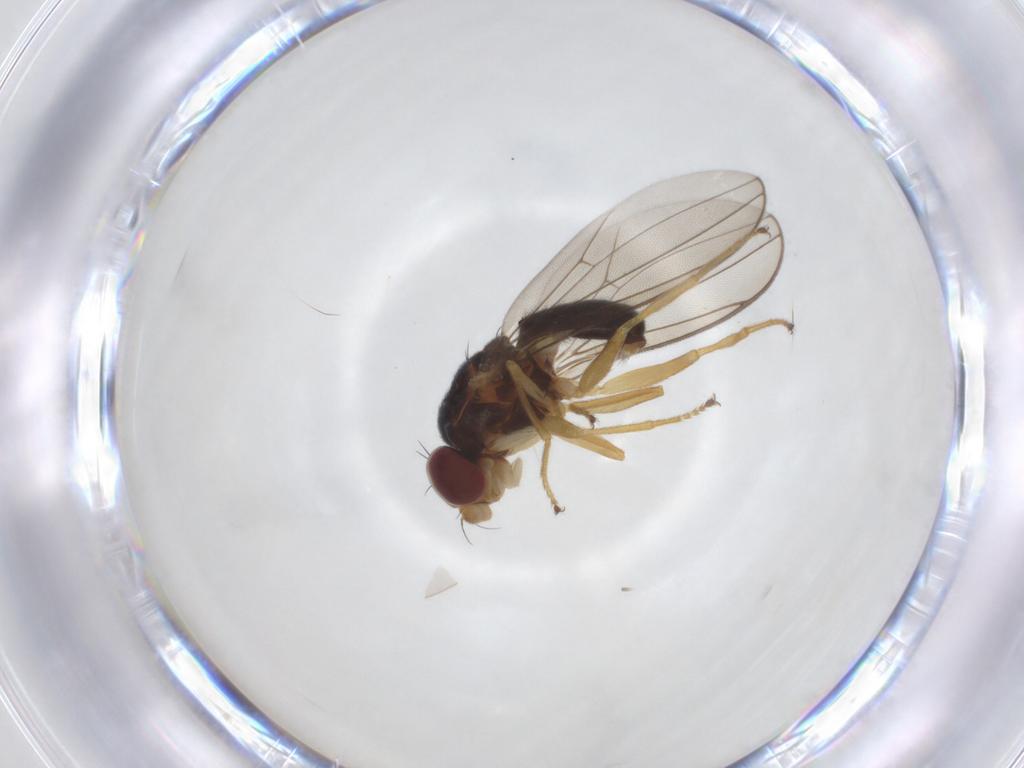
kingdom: Animalia
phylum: Arthropoda
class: Insecta
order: Diptera
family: Asteiidae
